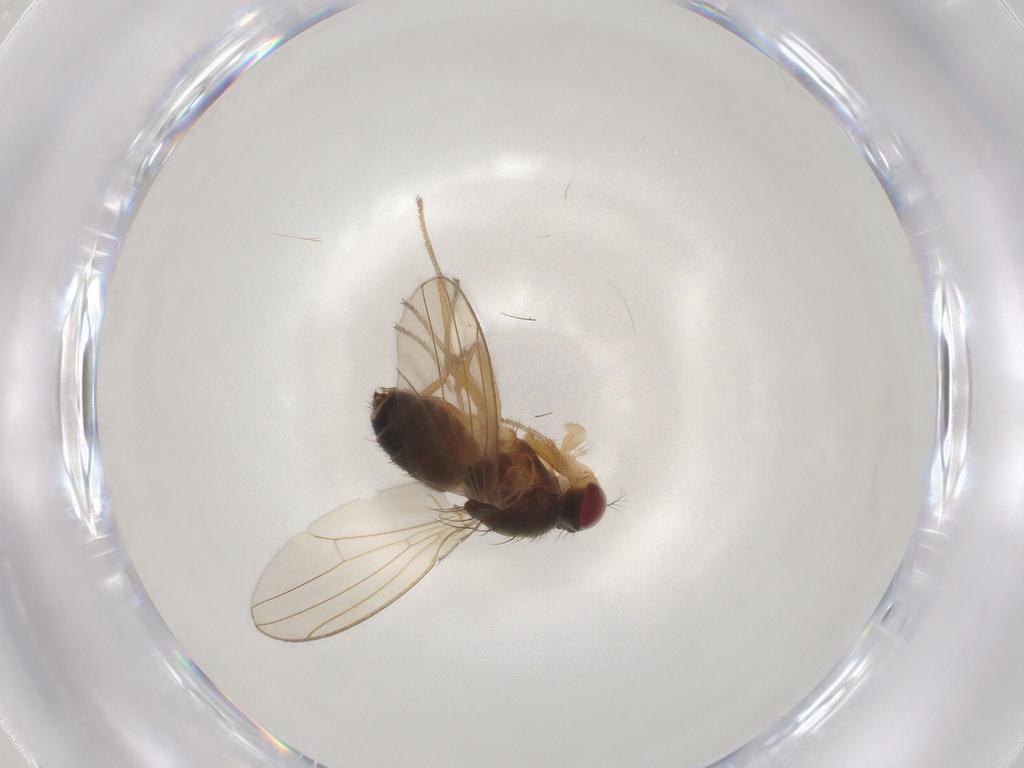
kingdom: Animalia
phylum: Arthropoda
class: Insecta
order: Diptera
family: Drosophilidae
